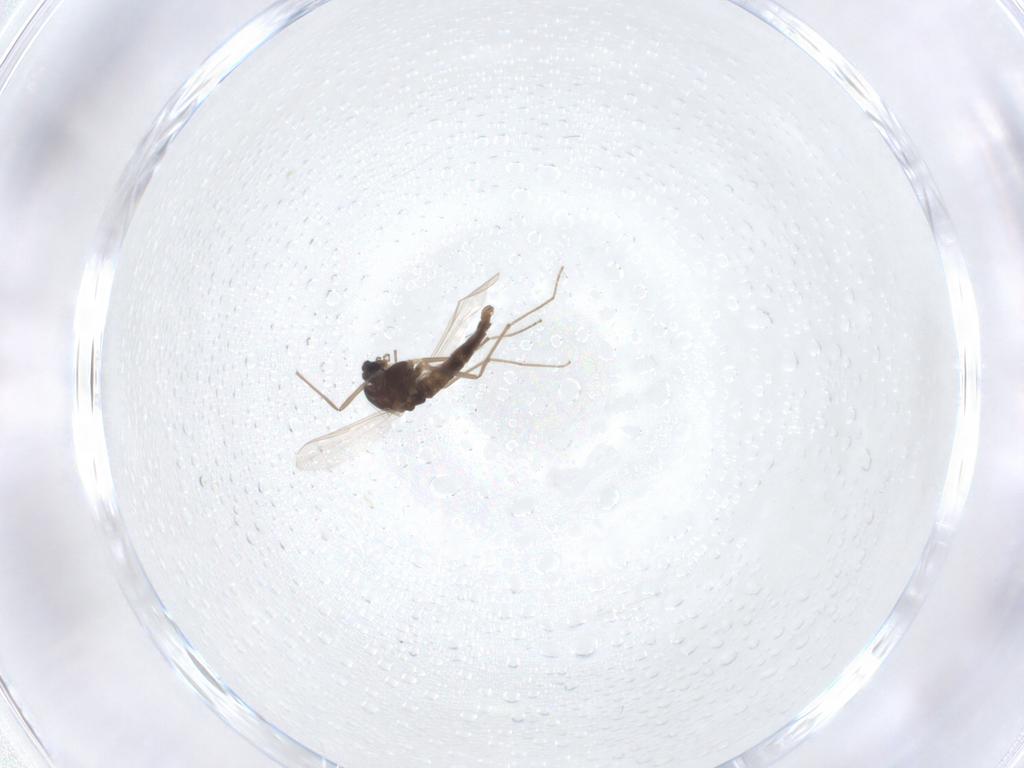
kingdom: Animalia
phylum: Arthropoda
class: Insecta
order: Diptera
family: Chironomidae
